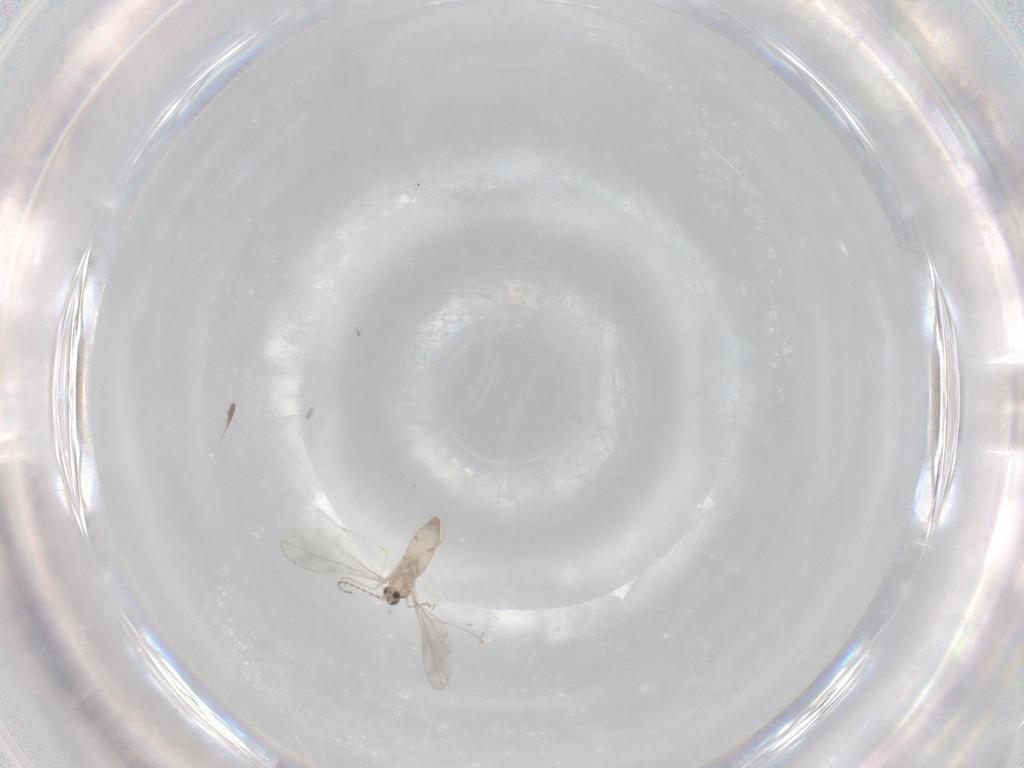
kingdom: Animalia
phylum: Arthropoda
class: Insecta
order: Diptera
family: Cecidomyiidae
